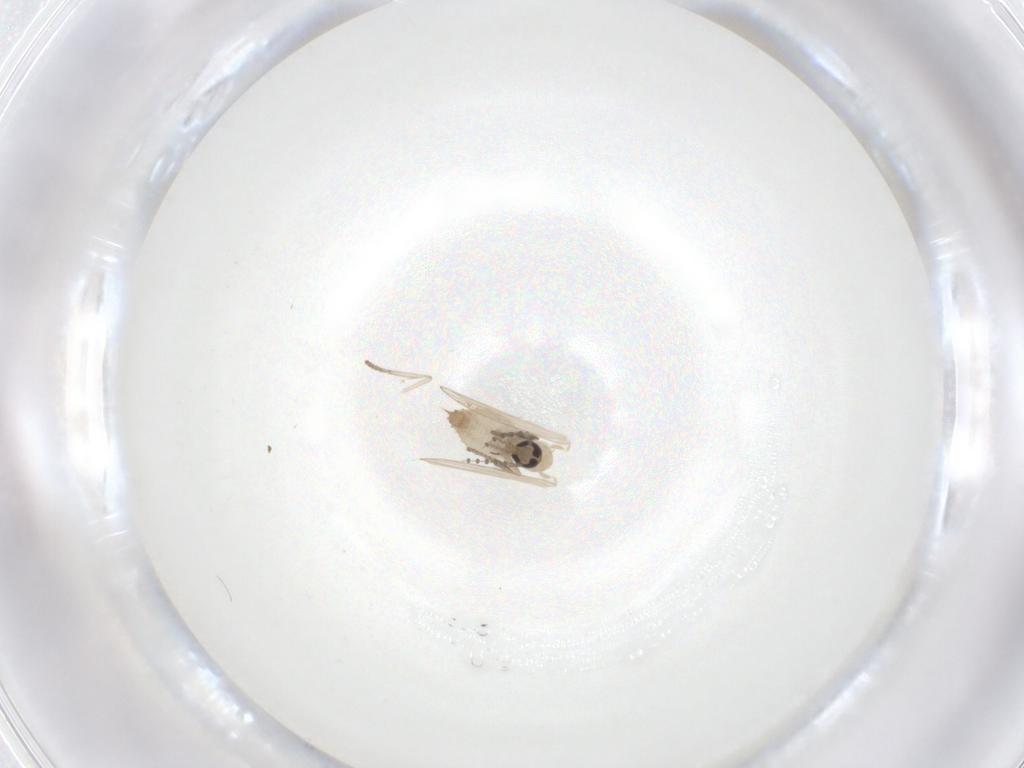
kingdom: Animalia
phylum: Arthropoda
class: Insecta
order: Diptera
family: Psychodidae
